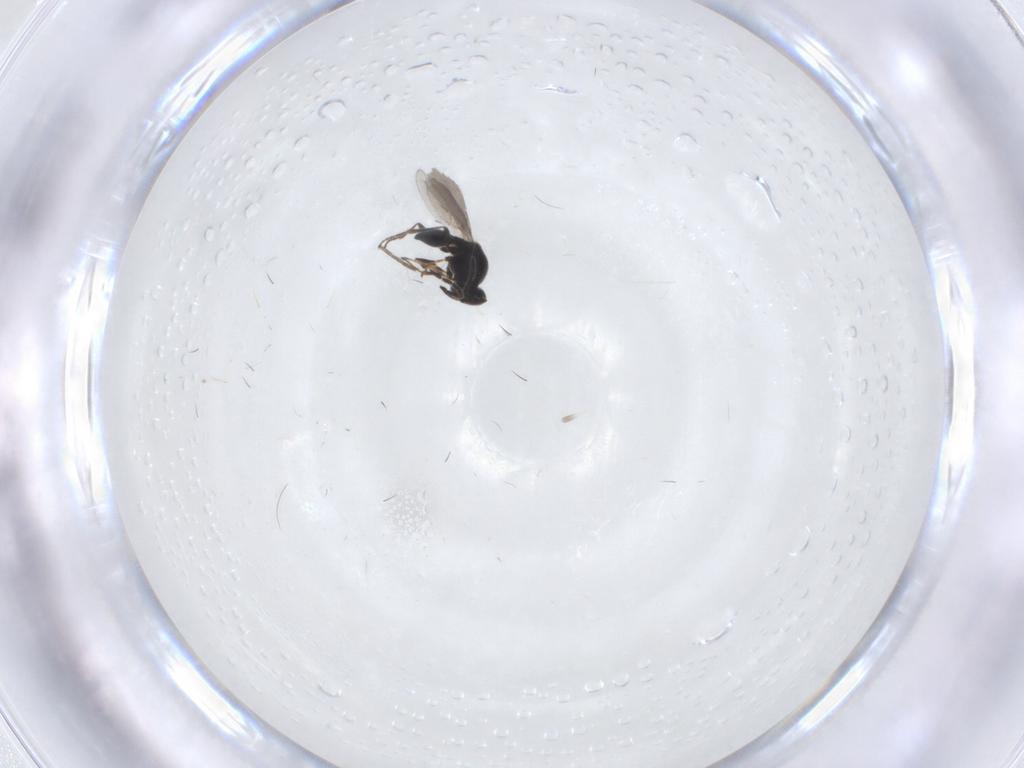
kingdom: Animalia
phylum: Arthropoda
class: Insecta
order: Hymenoptera
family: Platygastridae
